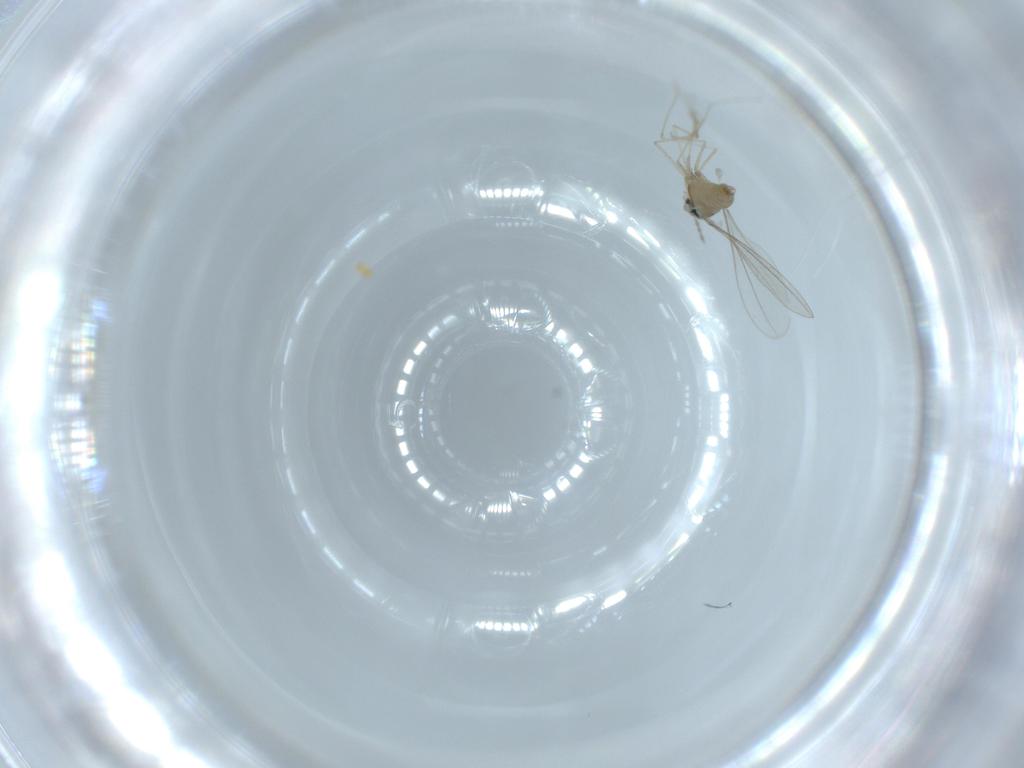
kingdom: Animalia
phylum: Arthropoda
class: Insecta
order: Diptera
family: Cecidomyiidae
